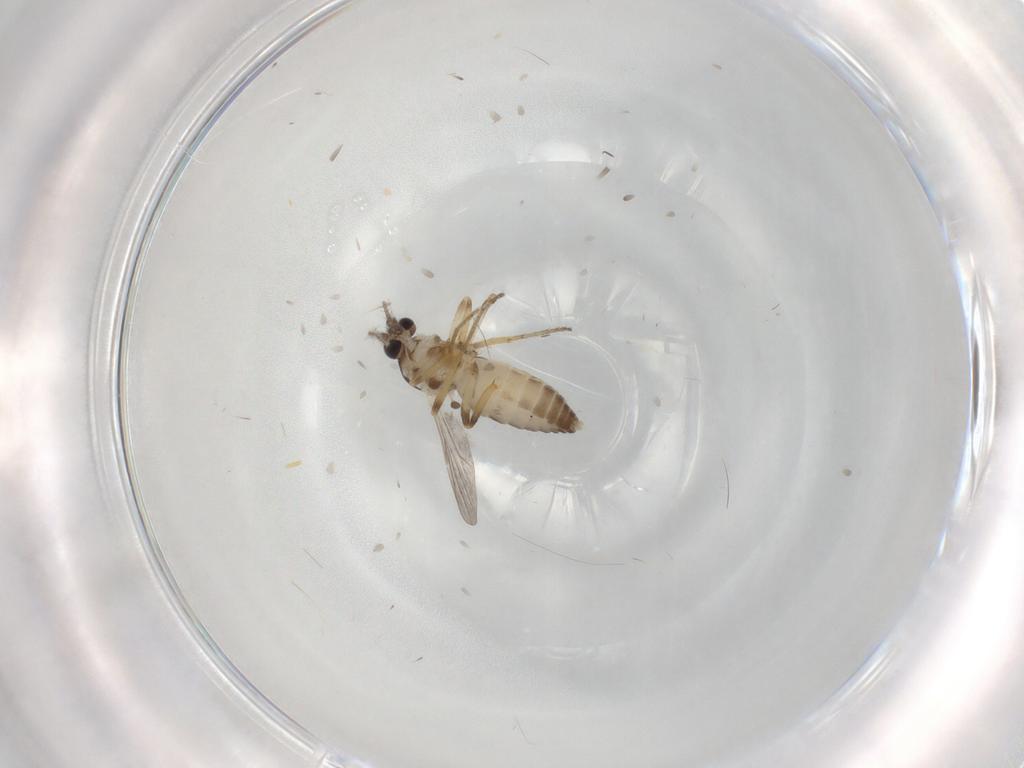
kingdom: Animalia
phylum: Arthropoda
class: Insecta
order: Diptera
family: Ceratopogonidae
